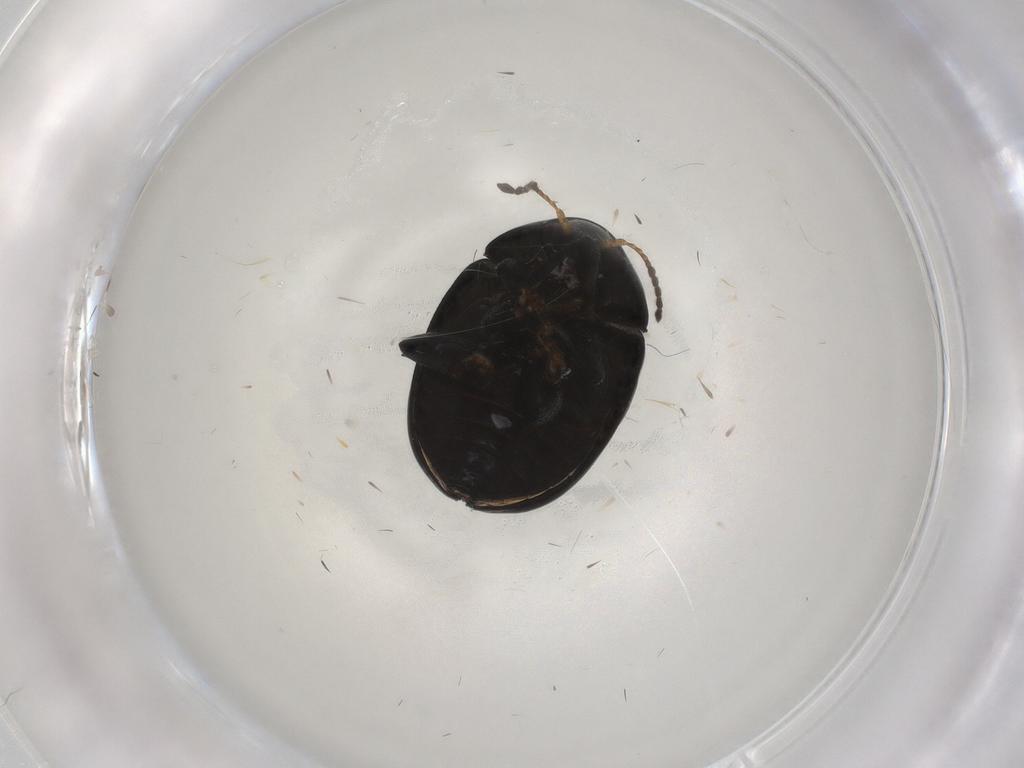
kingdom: Animalia
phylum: Arthropoda
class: Insecta
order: Coleoptera
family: Chrysomelidae
